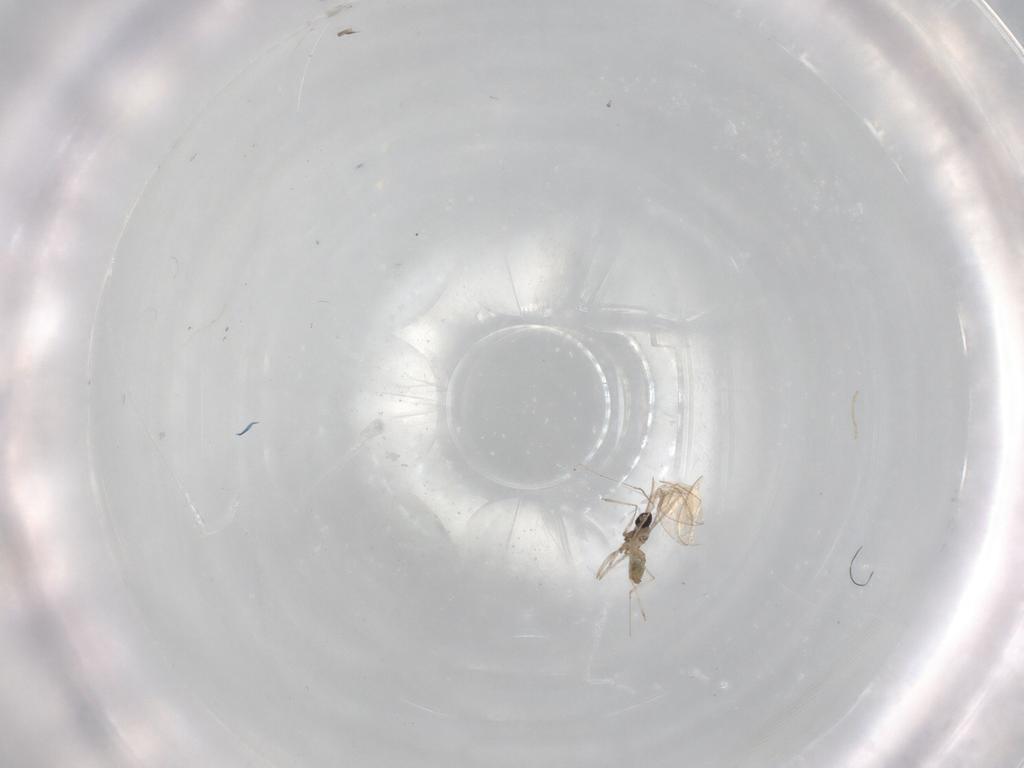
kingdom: Animalia
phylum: Arthropoda
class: Insecta
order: Diptera
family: Cecidomyiidae
